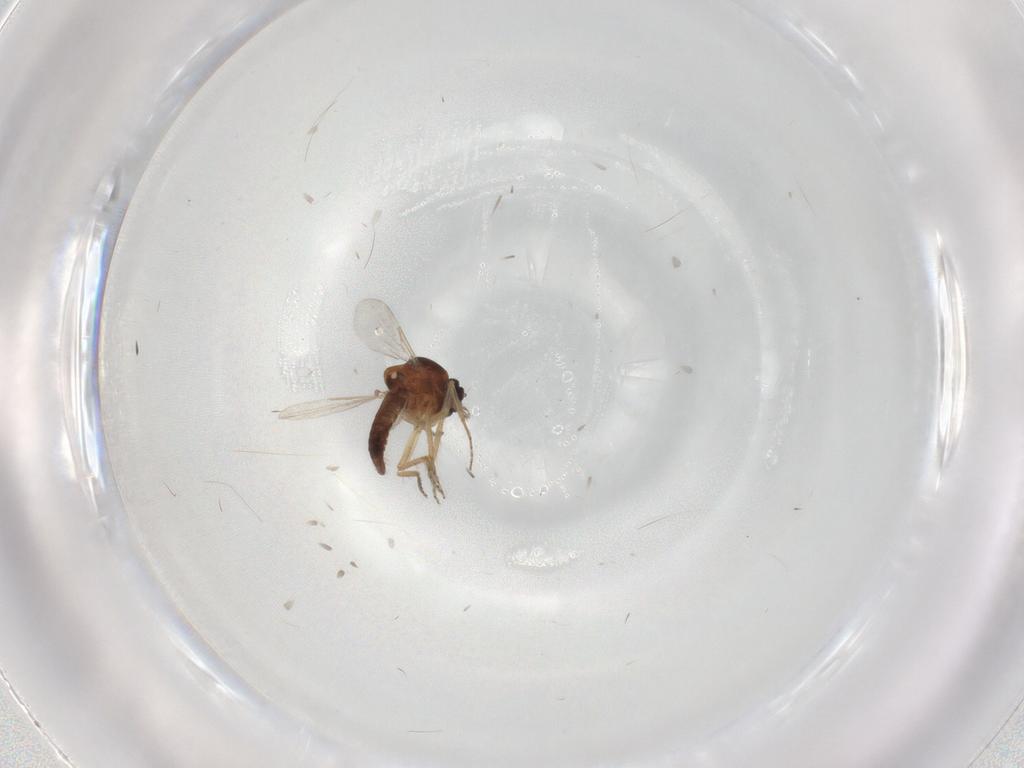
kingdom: Animalia
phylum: Arthropoda
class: Insecta
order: Diptera
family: Ceratopogonidae
